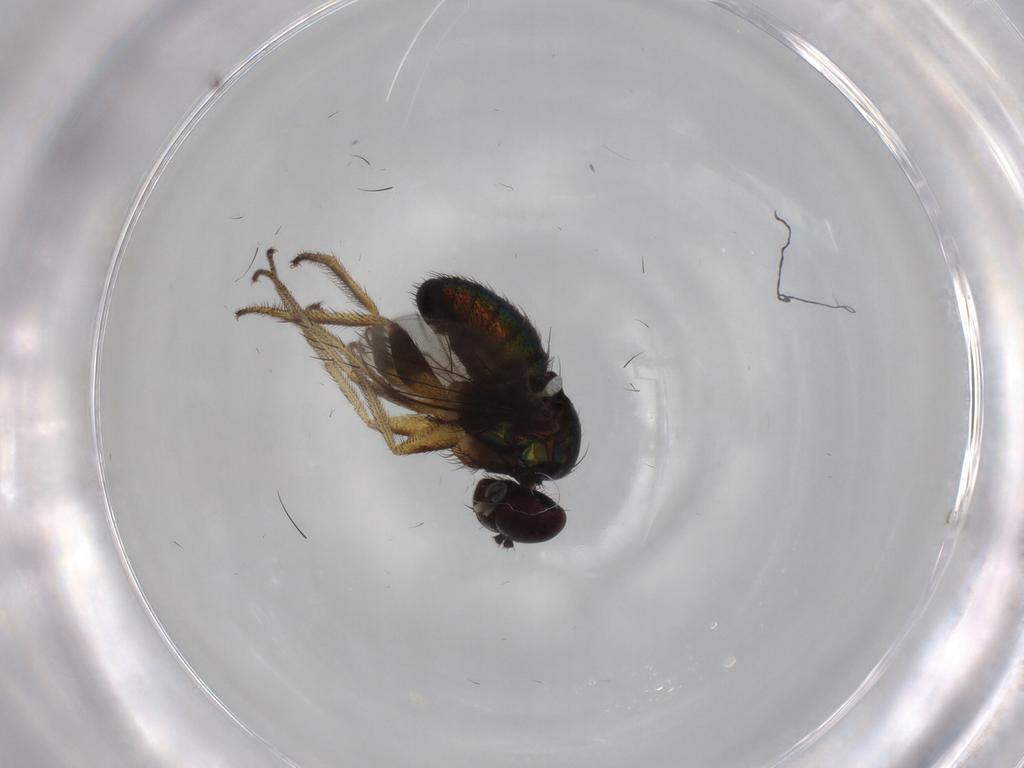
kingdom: Animalia
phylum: Arthropoda
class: Insecta
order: Diptera
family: Dolichopodidae
